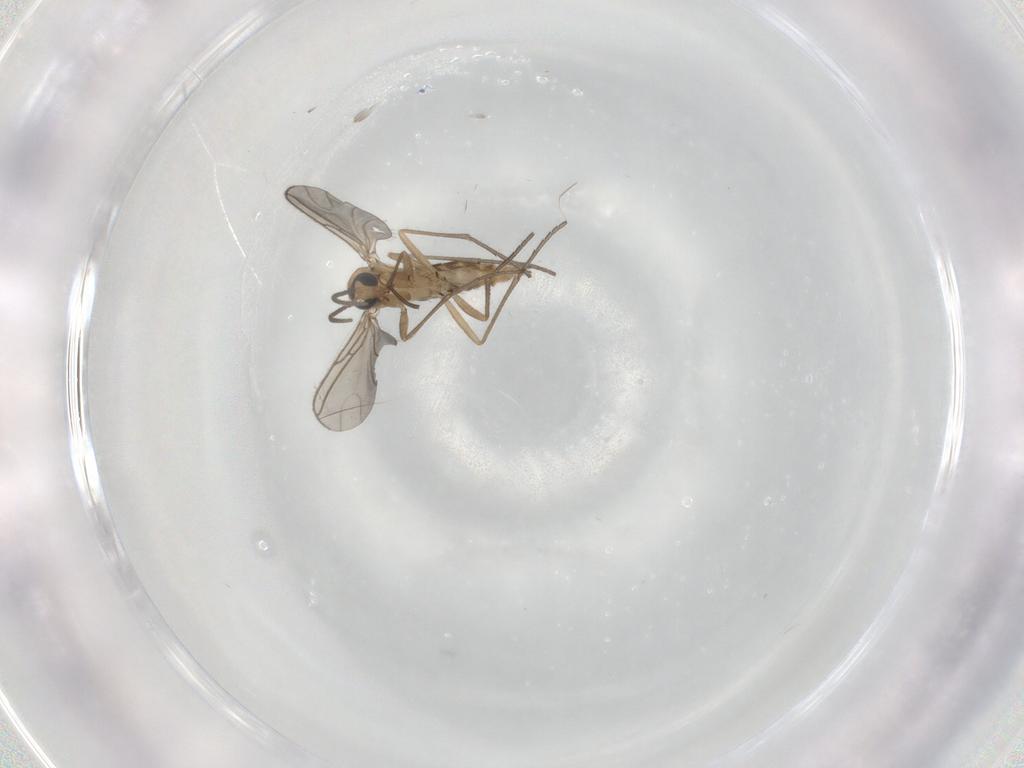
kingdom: Animalia
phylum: Arthropoda
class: Insecta
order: Diptera
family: Sciaridae
